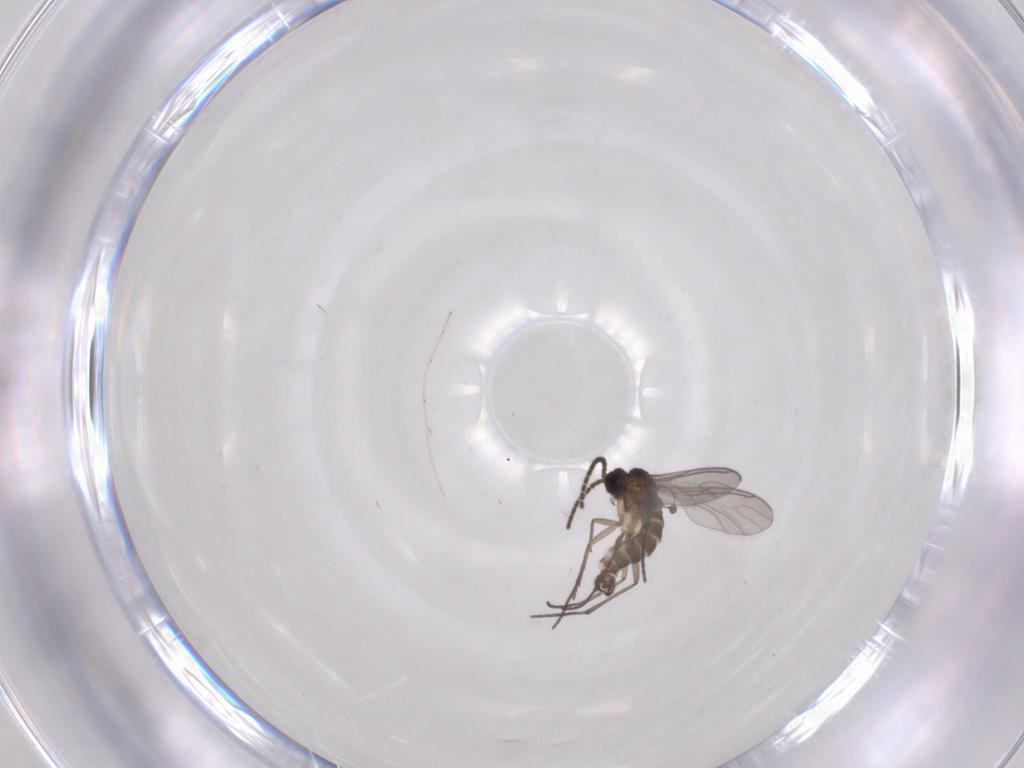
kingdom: Animalia
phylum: Arthropoda
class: Insecta
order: Diptera
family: Sciaridae
